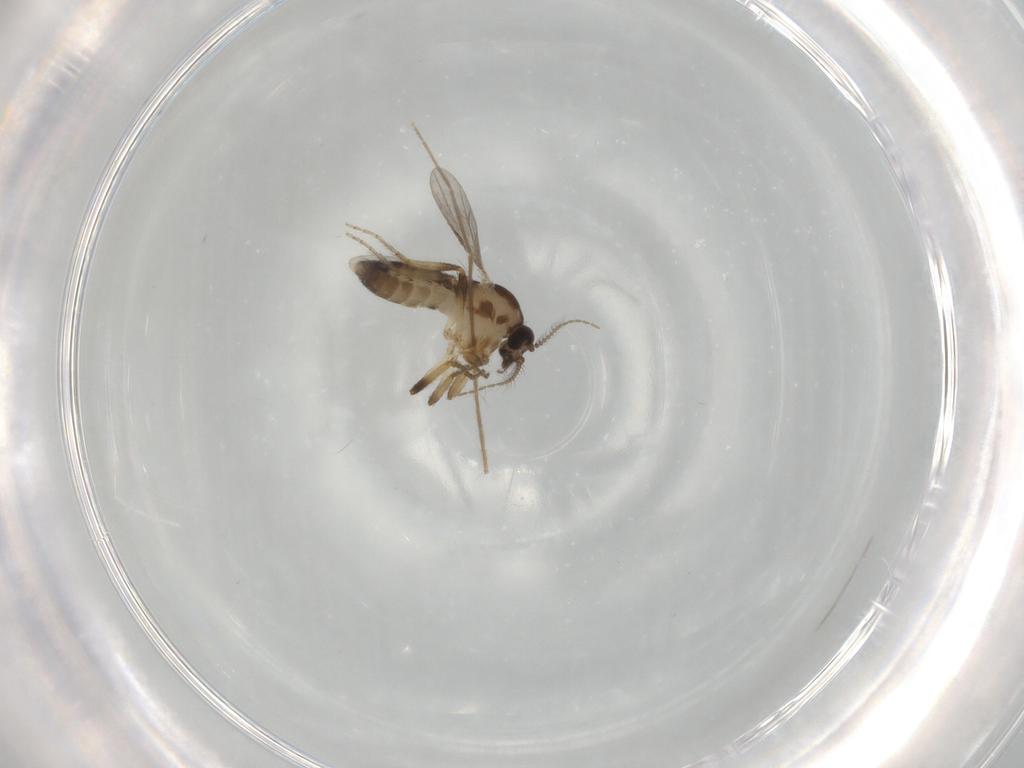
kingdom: Animalia
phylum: Arthropoda
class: Insecta
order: Diptera
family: Ceratopogonidae
